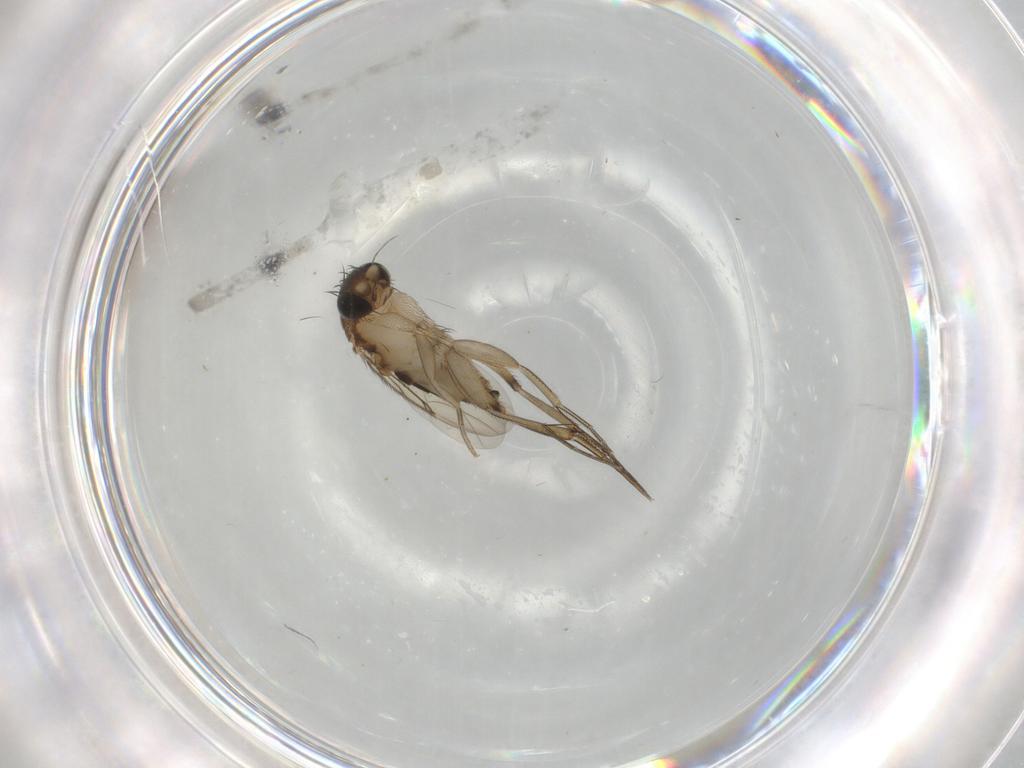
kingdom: Animalia
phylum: Arthropoda
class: Insecta
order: Diptera
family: Phoridae
